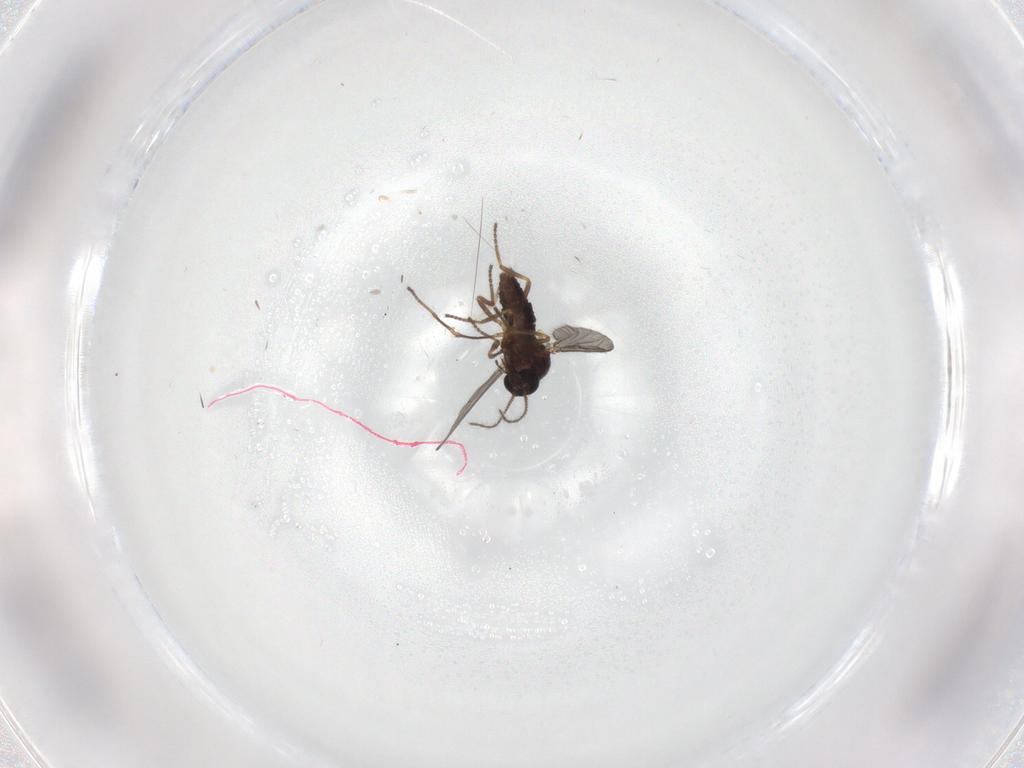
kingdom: Animalia
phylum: Arthropoda
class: Insecta
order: Diptera
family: Ceratopogonidae
